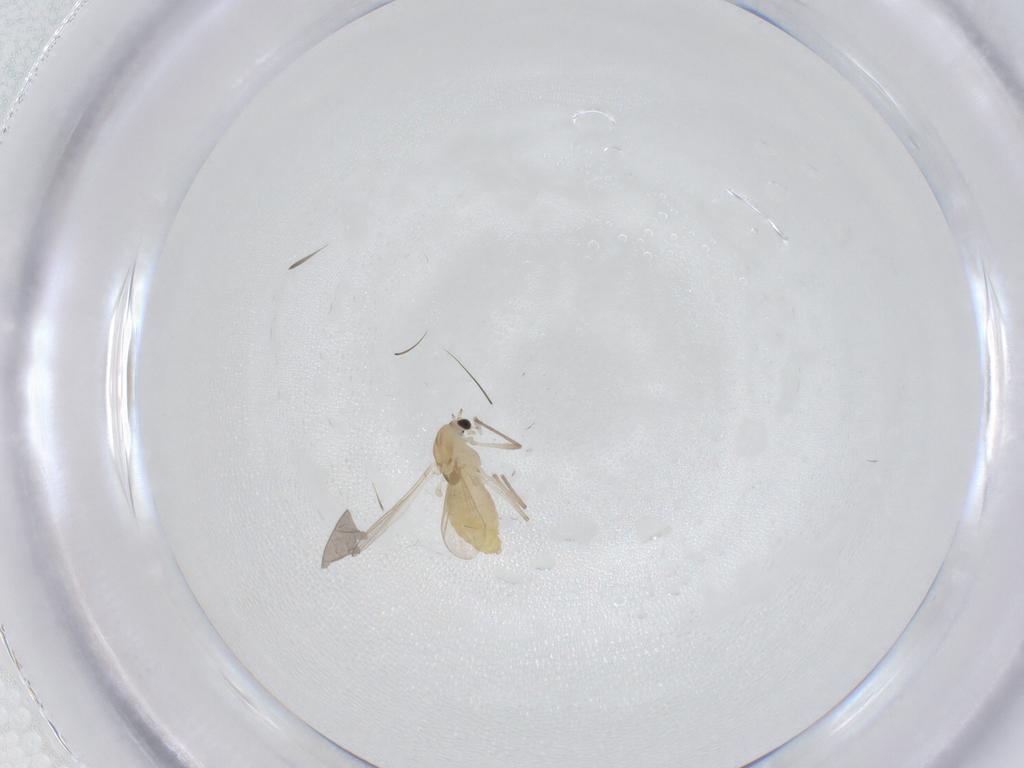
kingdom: Animalia
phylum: Arthropoda
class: Insecta
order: Diptera
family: Chironomidae
